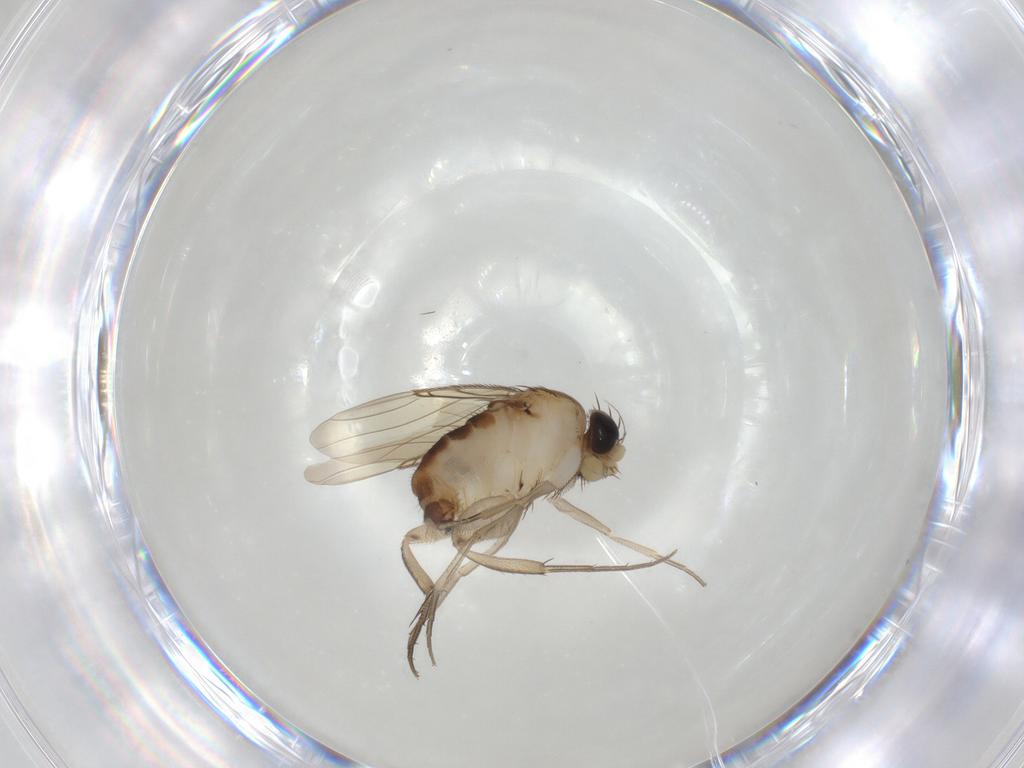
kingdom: Animalia
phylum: Arthropoda
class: Insecta
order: Diptera
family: Phoridae
